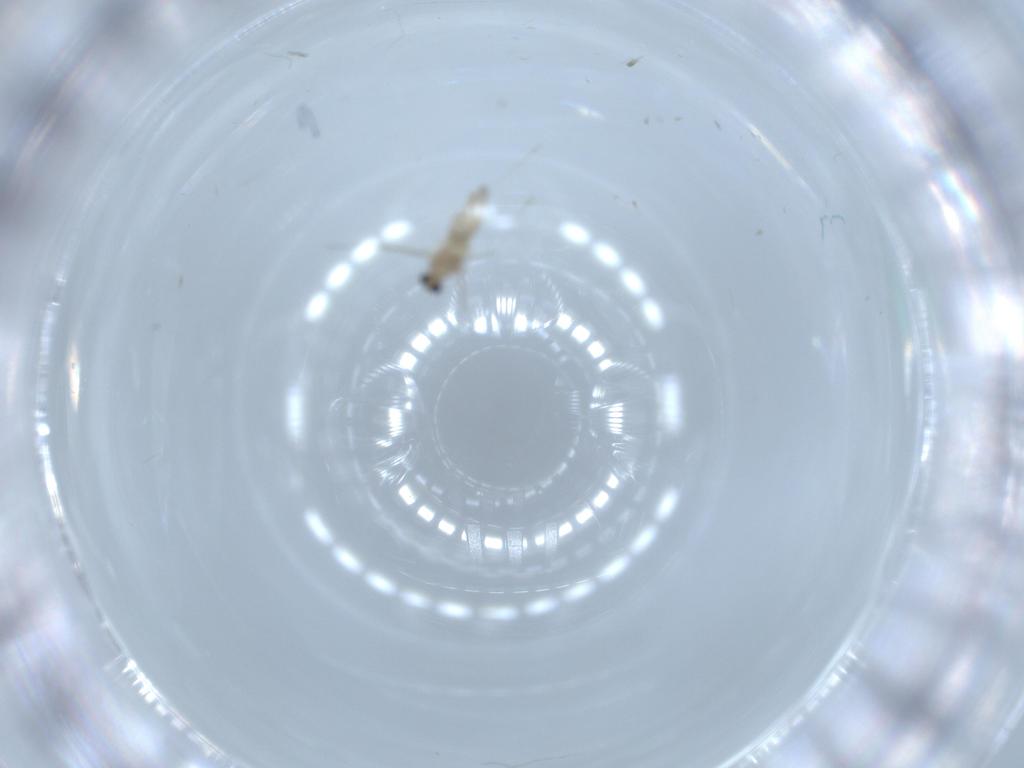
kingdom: Animalia
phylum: Arthropoda
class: Insecta
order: Diptera
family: Cecidomyiidae
